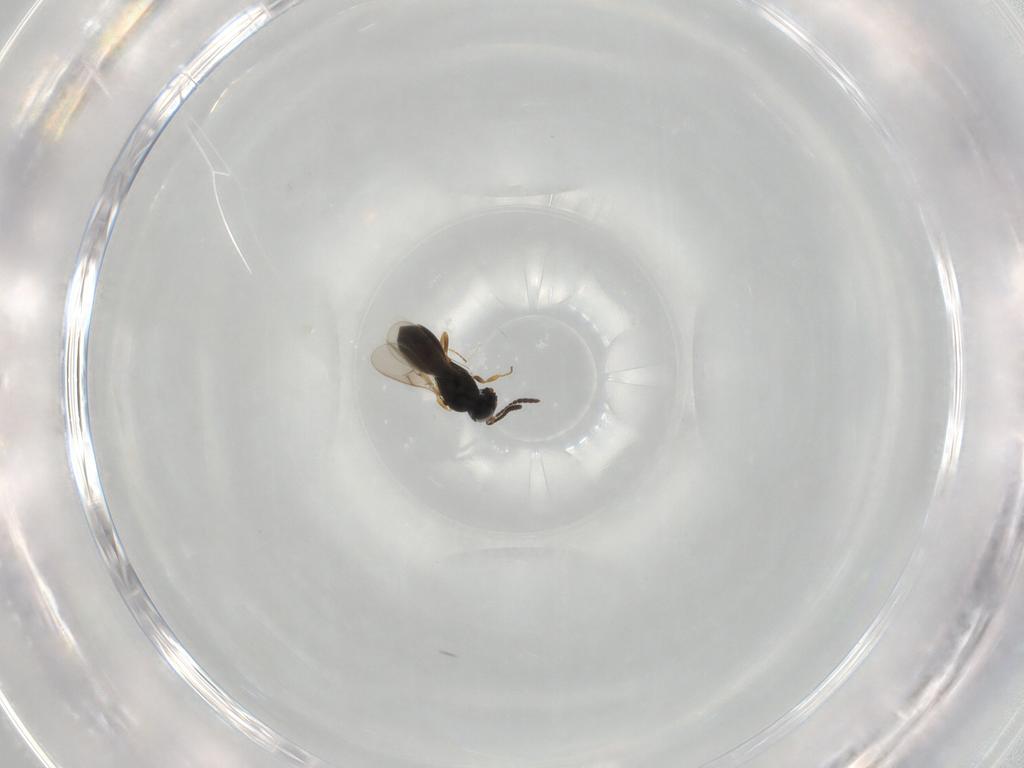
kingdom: Animalia
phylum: Arthropoda
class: Insecta
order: Hymenoptera
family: Scelionidae
